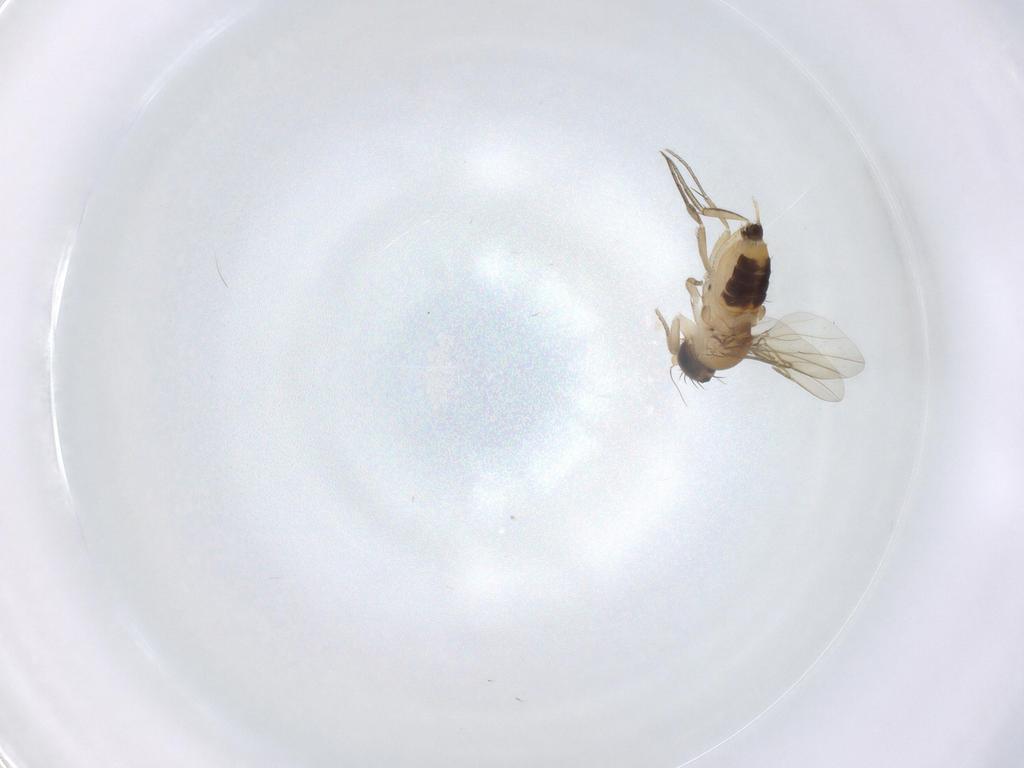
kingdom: Animalia
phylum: Arthropoda
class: Insecta
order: Diptera
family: Phoridae
